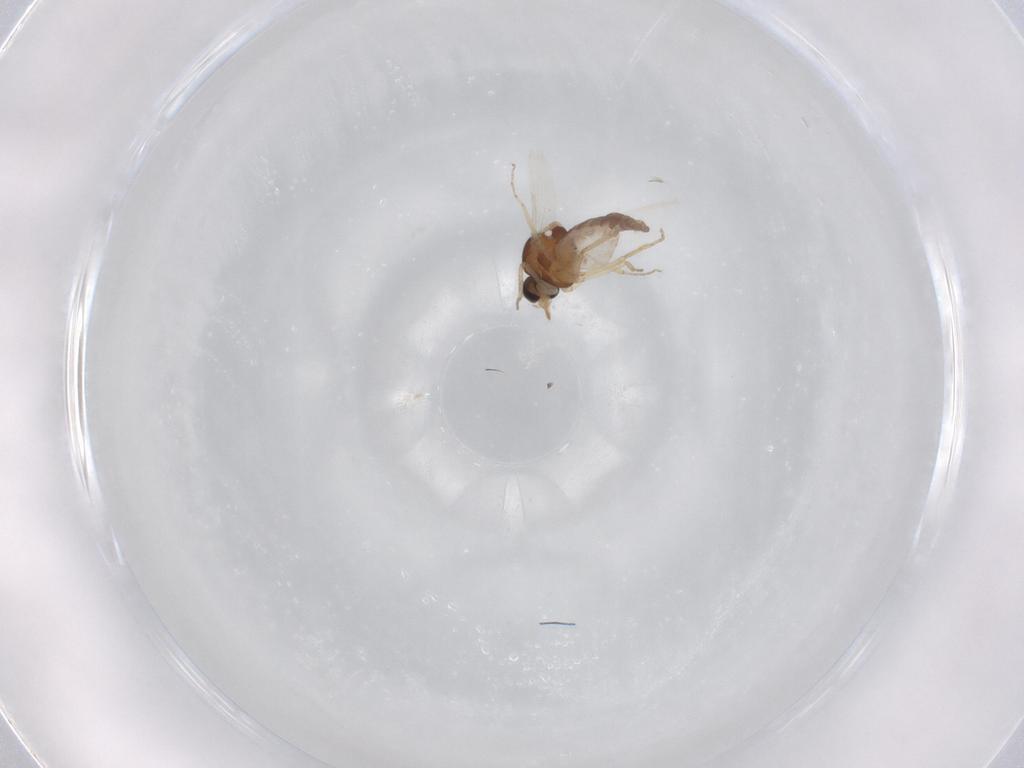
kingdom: Animalia
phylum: Arthropoda
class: Insecta
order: Diptera
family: Ceratopogonidae
